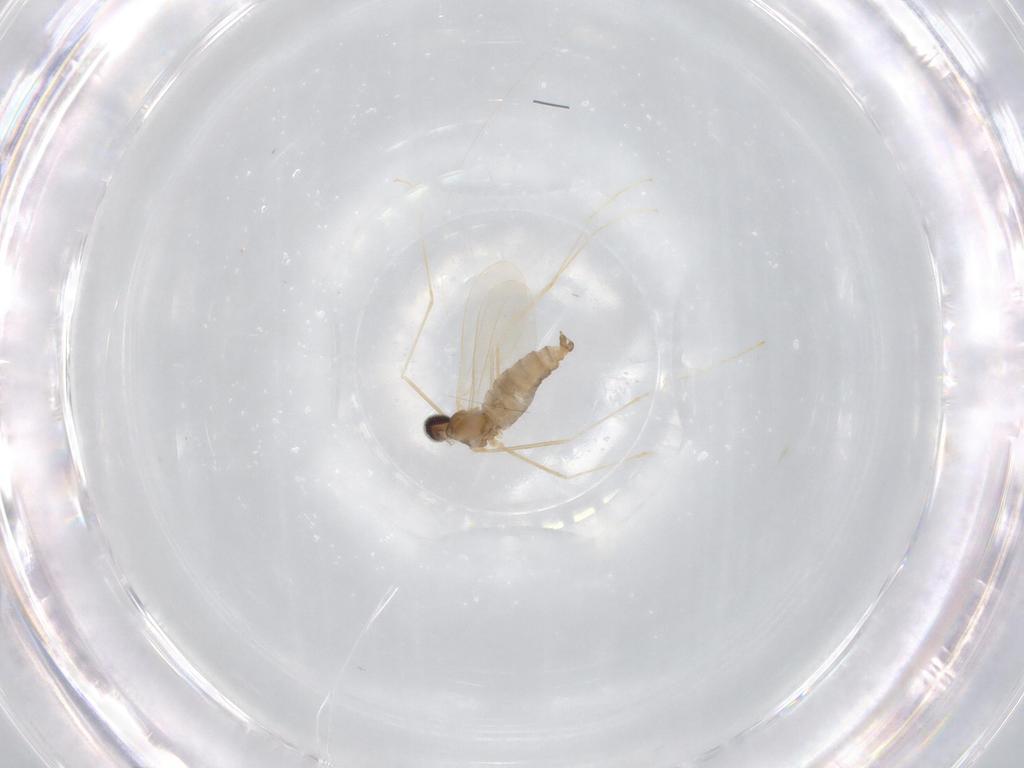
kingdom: Animalia
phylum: Arthropoda
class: Insecta
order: Diptera
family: Cecidomyiidae
